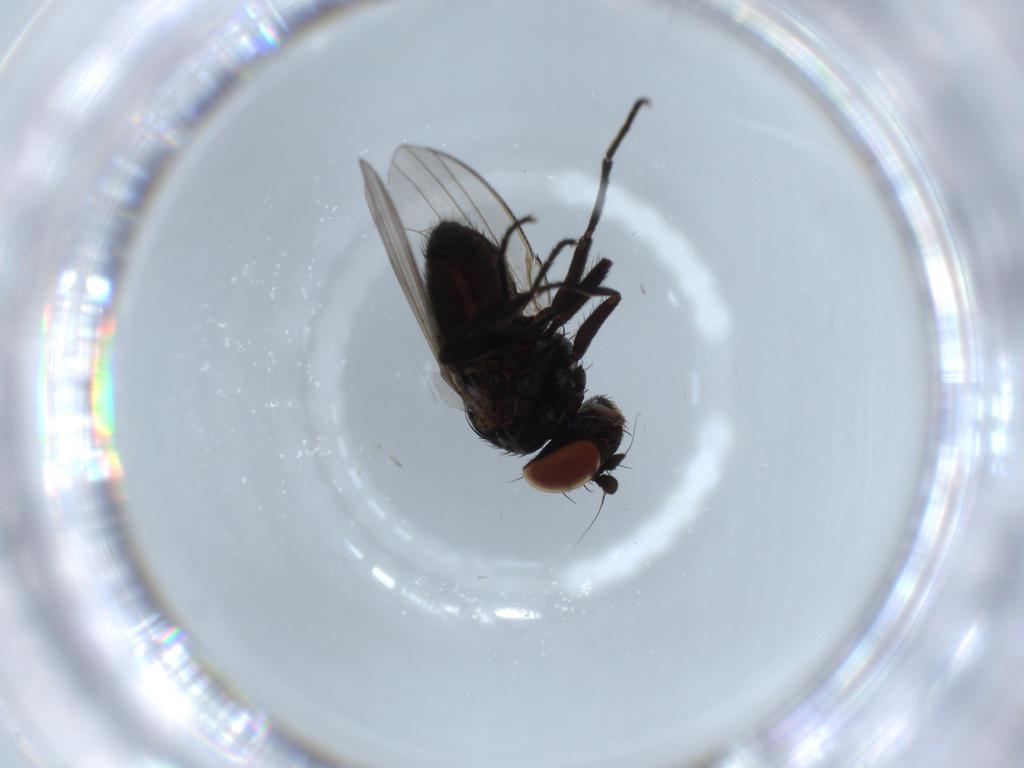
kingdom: Animalia
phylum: Arthropoda
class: Insecta
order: Diptera
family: Milichiidae
